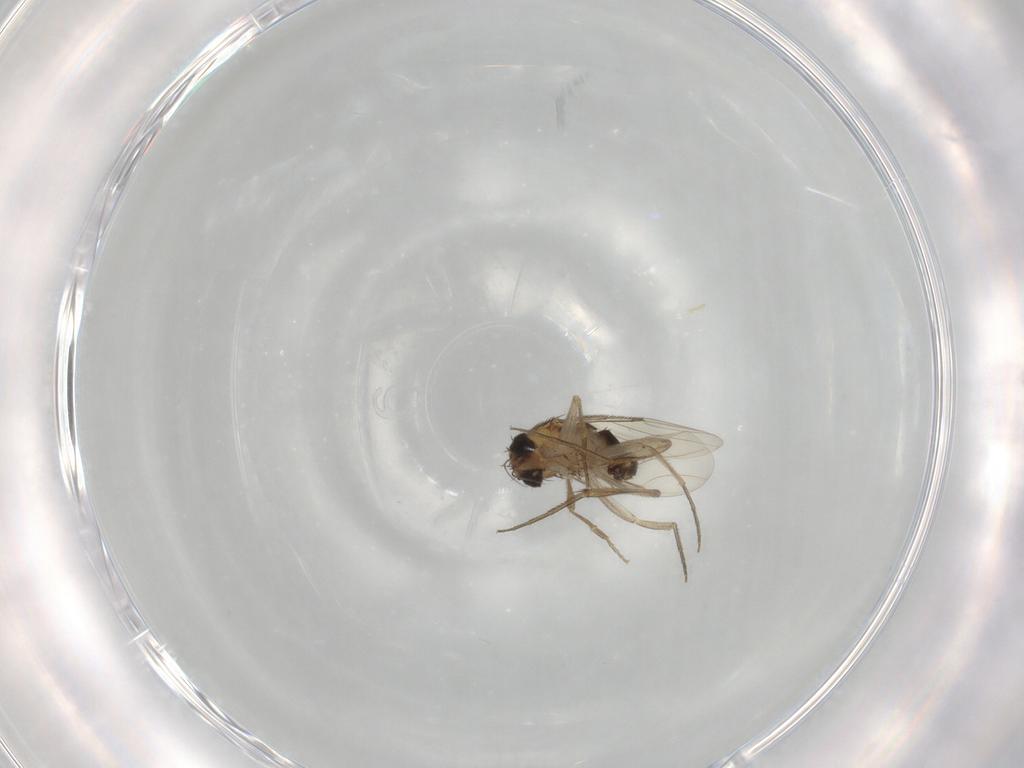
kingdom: Animalia
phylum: Arthropoda
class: Insecta
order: Diptera
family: Phoridae
